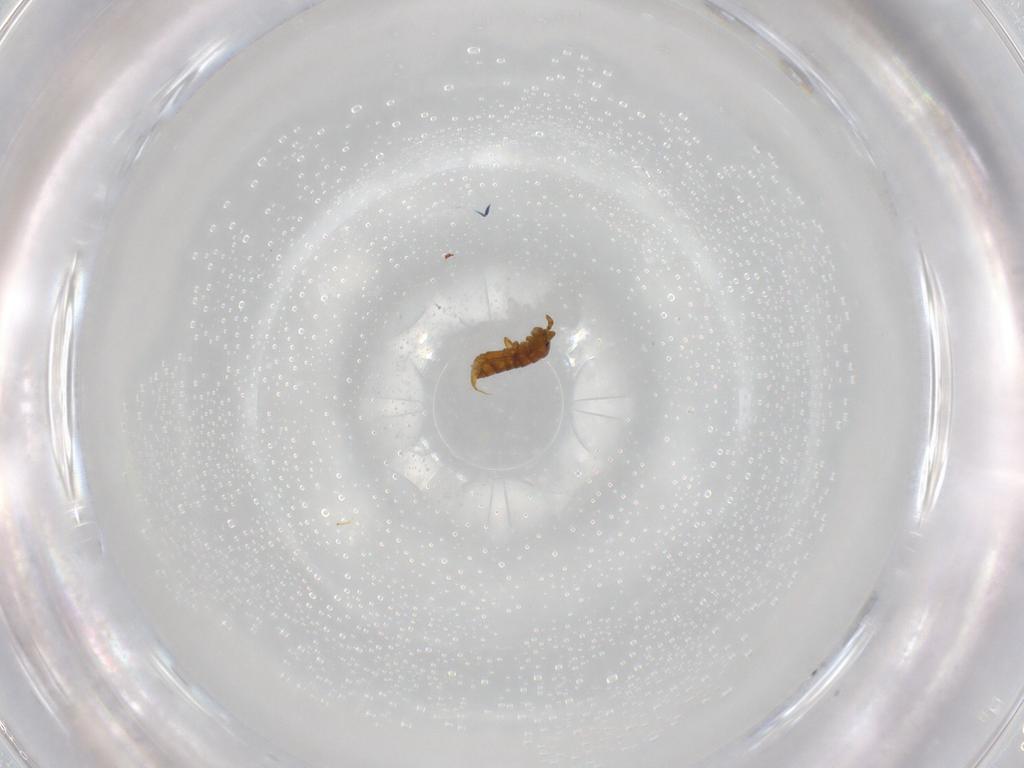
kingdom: Animalia
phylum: Arthropoda
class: Collembola
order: Entomobryomorpha
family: Isotomidae
